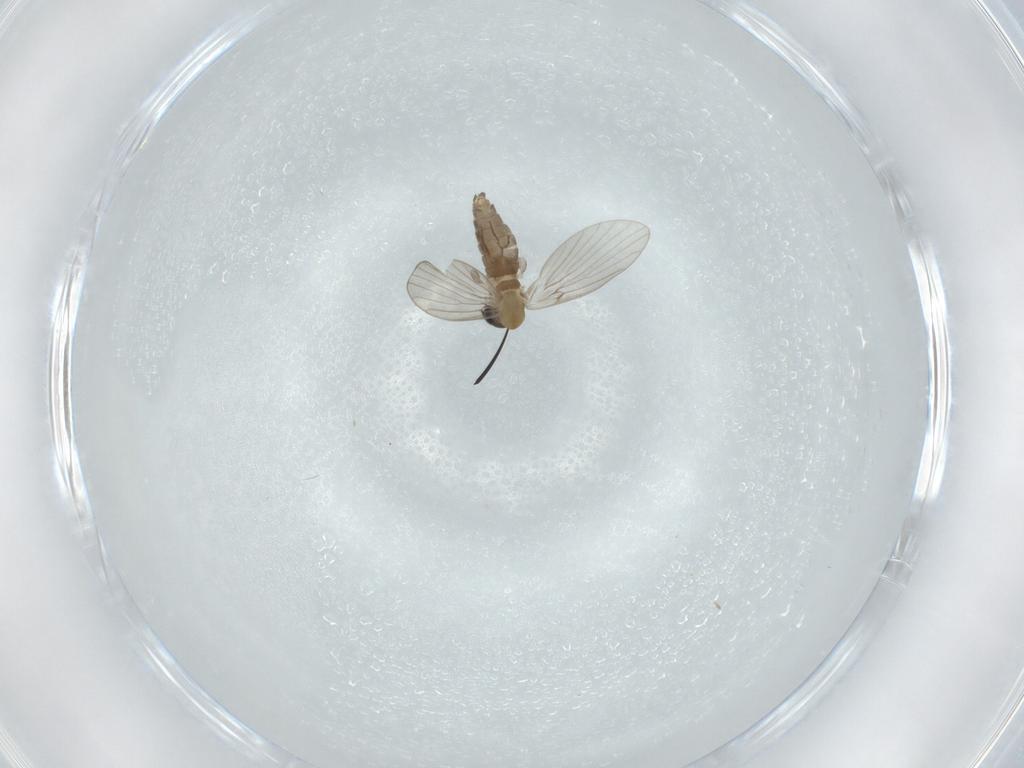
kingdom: Animalia
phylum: Arthropoda
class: Insecta
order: Diptera
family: Psychodidae
